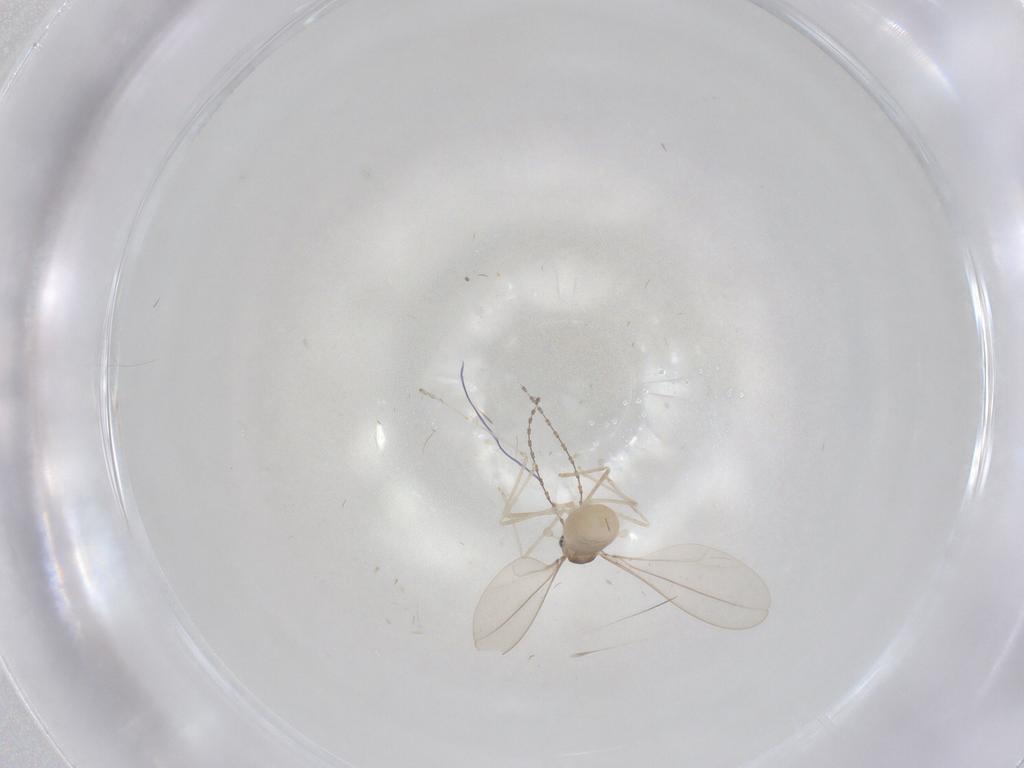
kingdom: Animalia
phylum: Arthropoda
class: Insecta
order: Diptera
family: Cecidomyiidae
